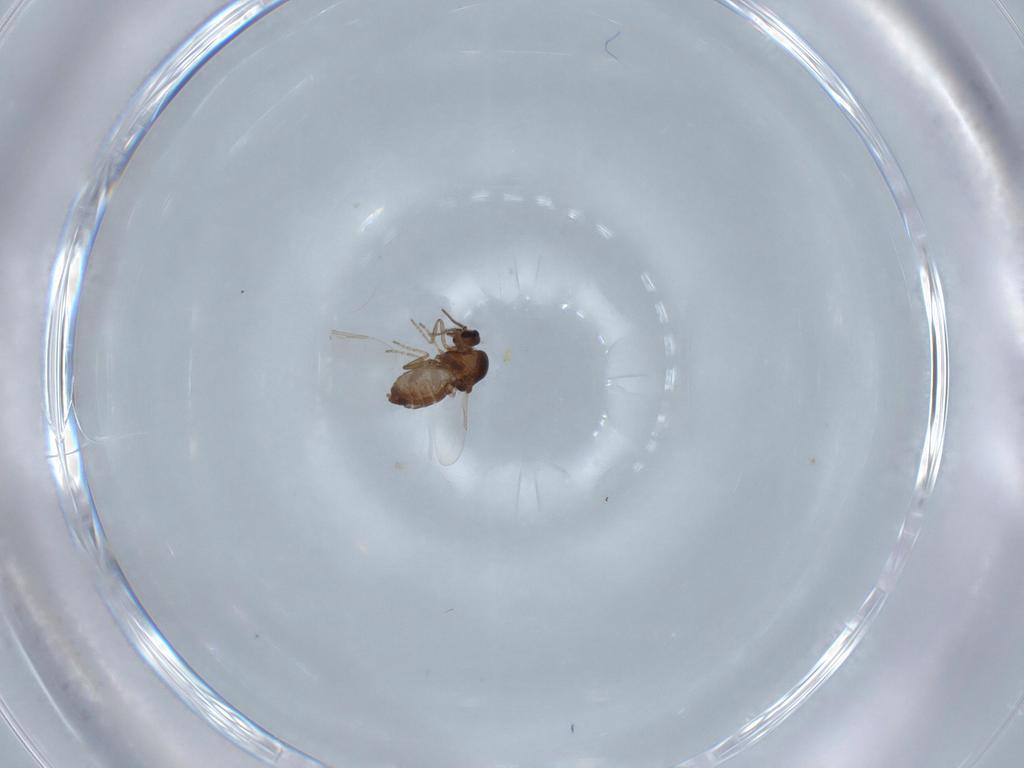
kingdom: Animalia
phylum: Arthropoda
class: Insecta
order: Diptera
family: Ceratopogonidae
